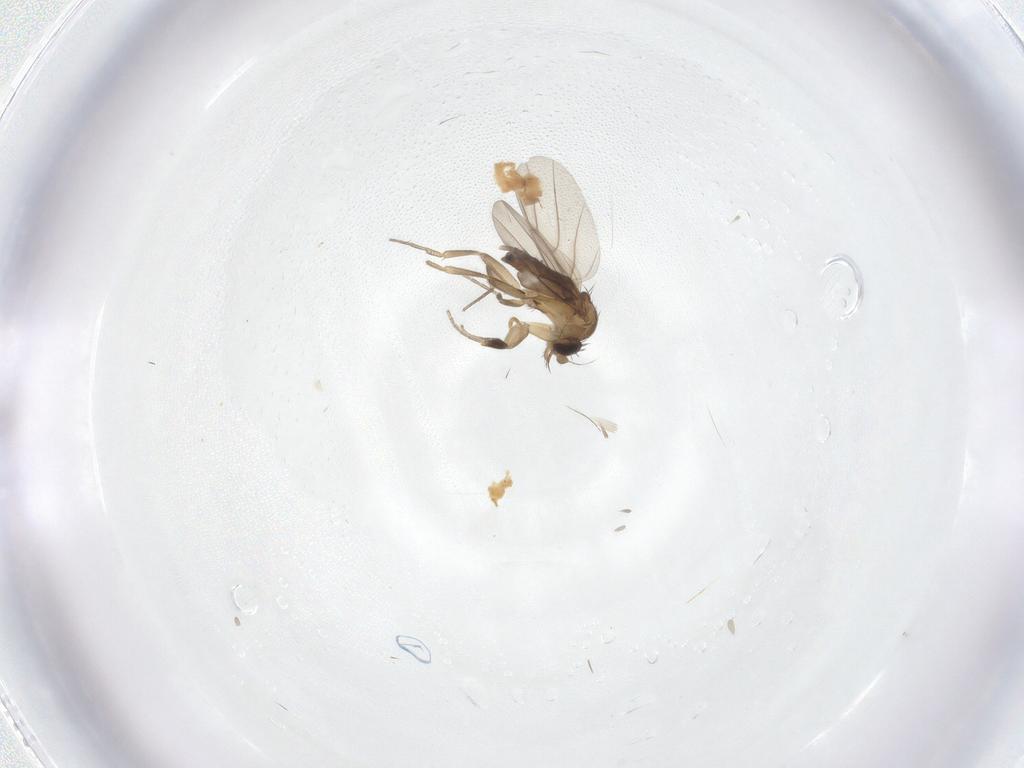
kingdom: Animalia
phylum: Arthropoda
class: Insecta
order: Diptera
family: Phoridae
